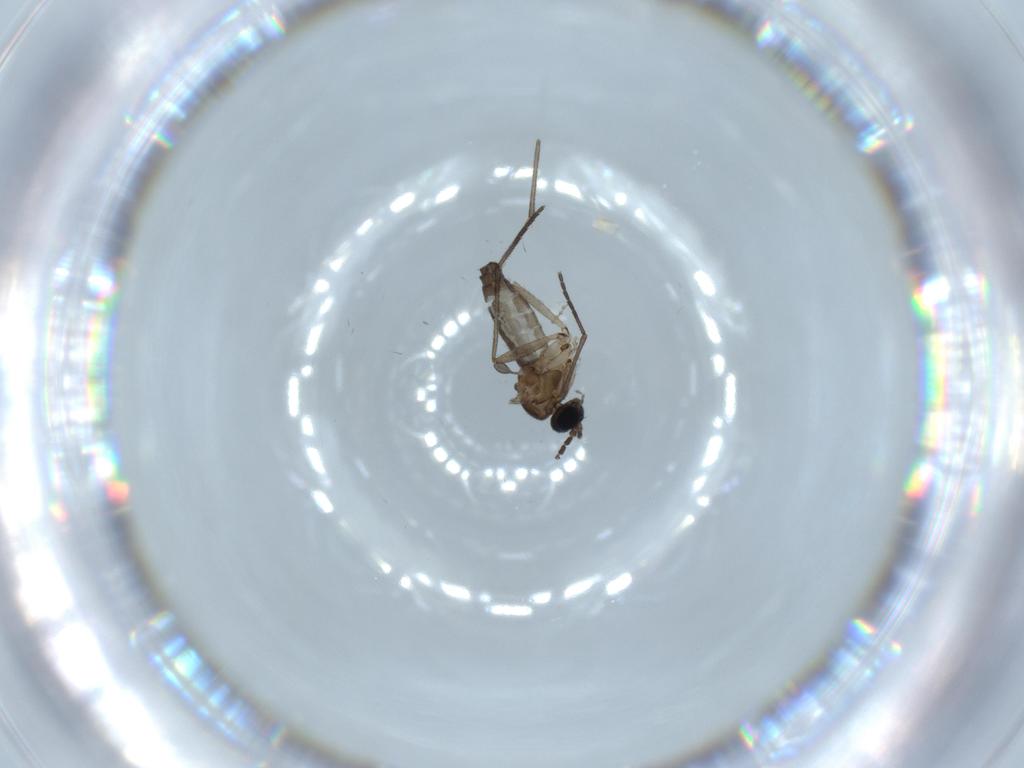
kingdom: Animalia
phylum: Arthropoda
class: Insecta
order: Diptera
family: Sciaridae
